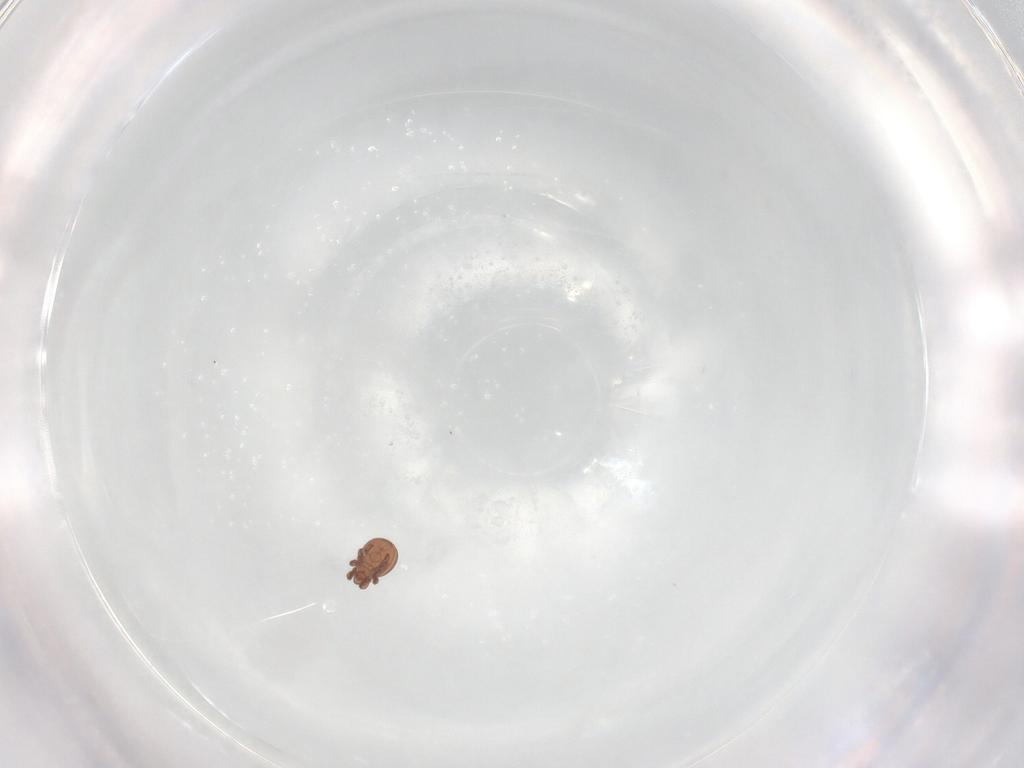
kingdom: Animalia
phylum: Arthropoda
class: Arachnida
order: Sarcoptiformes
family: Eremaeidae
